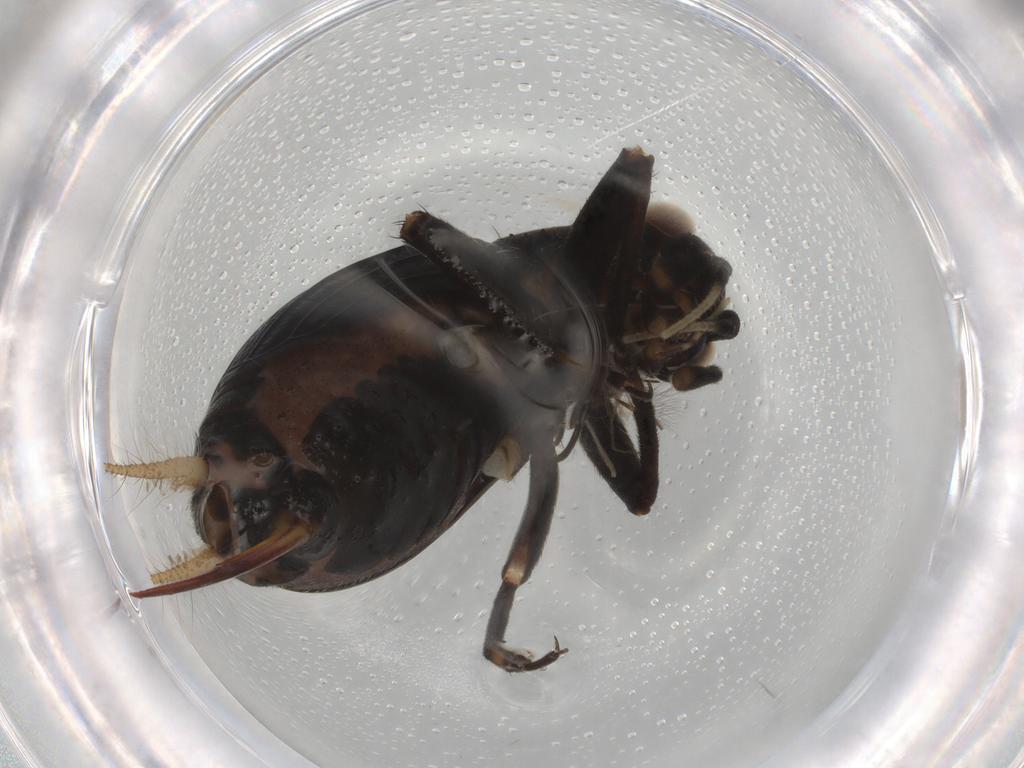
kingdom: Animalia
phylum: Arthropoda
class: Insecta
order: Orthoptera
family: Trigonidiidae
